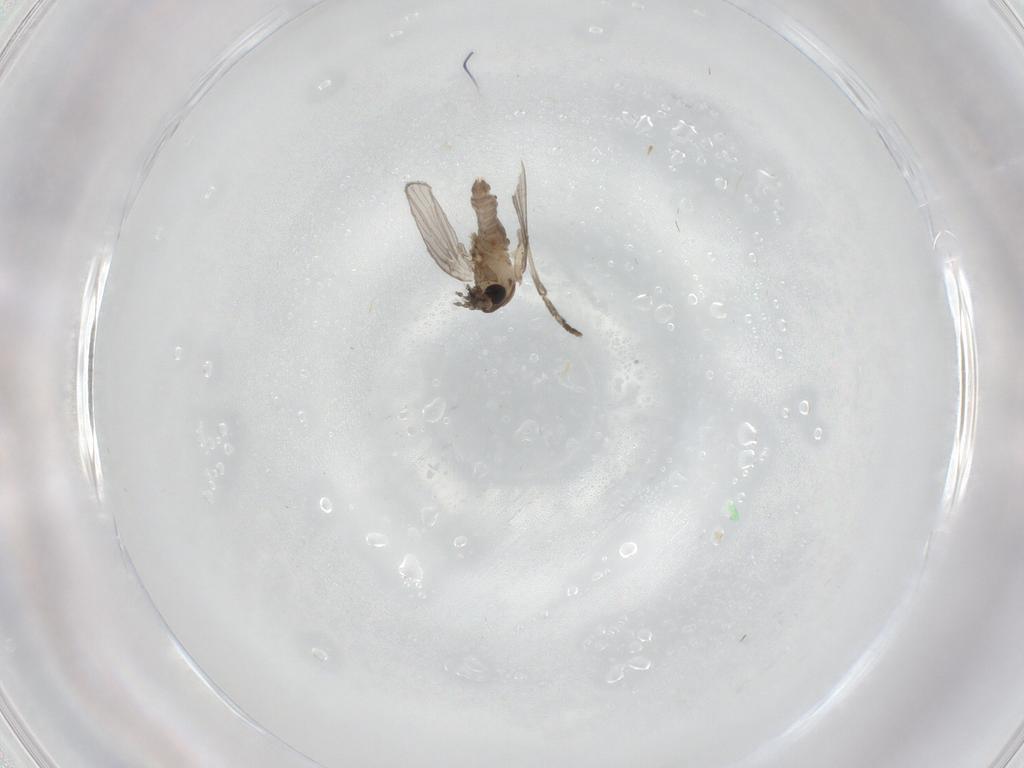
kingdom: Animalia
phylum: Arthropoda
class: Insecta
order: Diptera
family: Psychodidae
